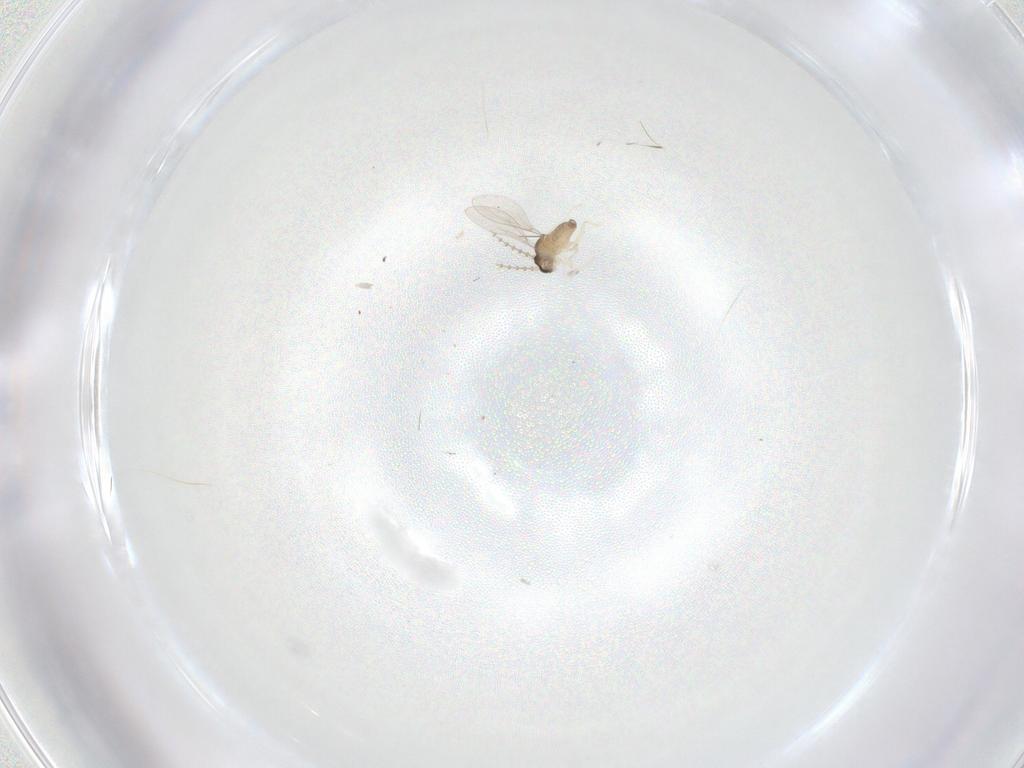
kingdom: Animalia
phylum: Arthropoda
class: Insecta
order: Diptera
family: Cecidomyiidae
